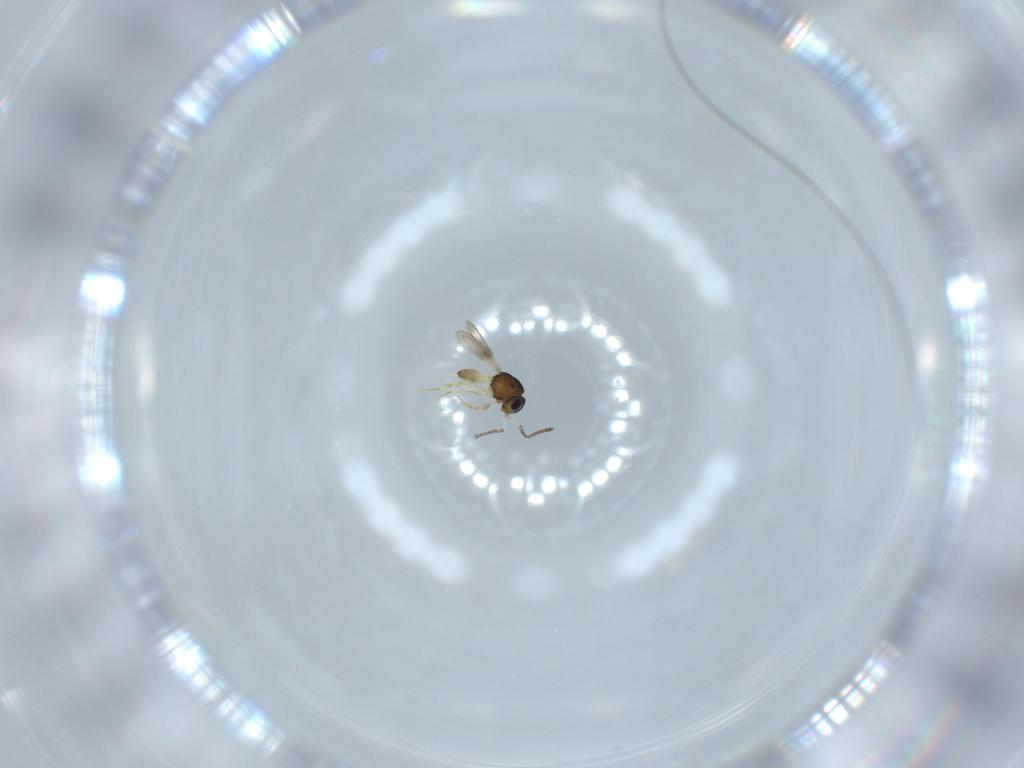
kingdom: Animalia
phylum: Arthropoda
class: Insecta
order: Hymenoptera
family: Scelionidae
